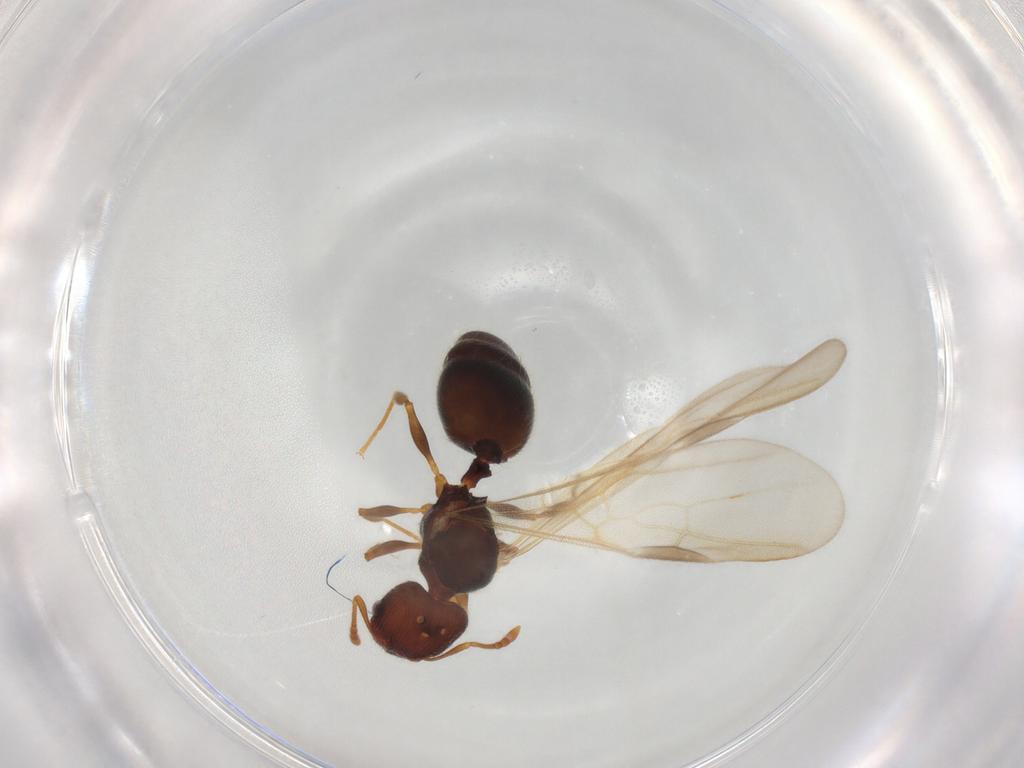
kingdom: Animalia
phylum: Arthropoda
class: Insecta
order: Hymenoptera
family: Formicidae
